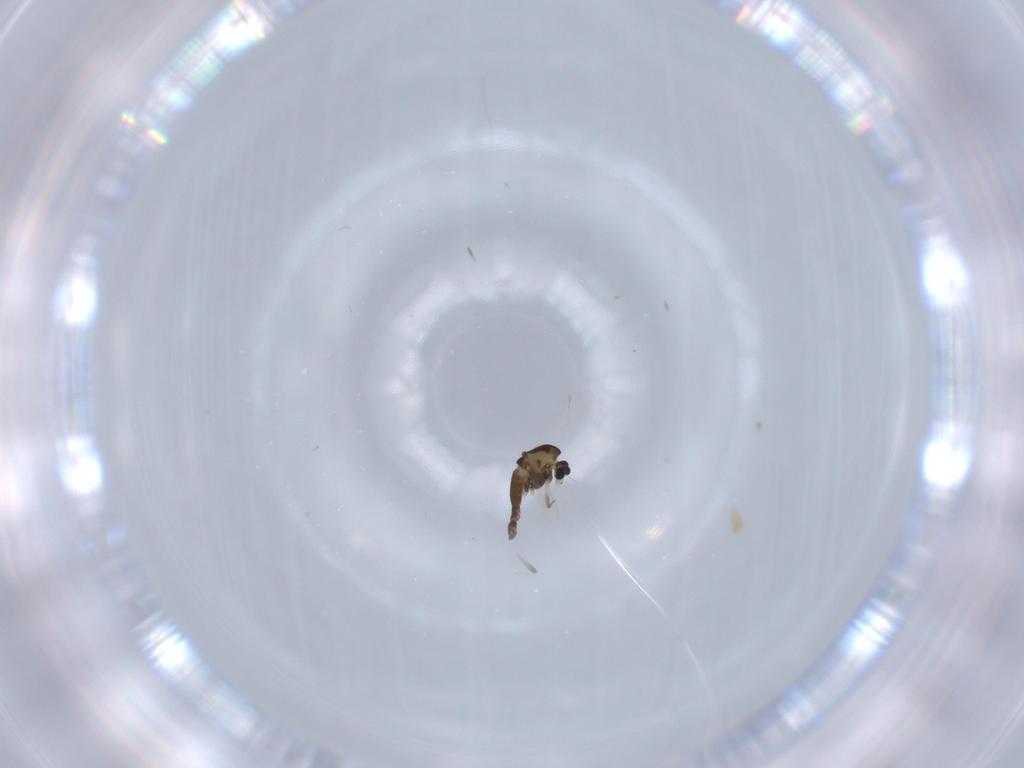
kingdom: Animalia
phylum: Arthropoda
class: Insecta
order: Diptera
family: Chironomidae
